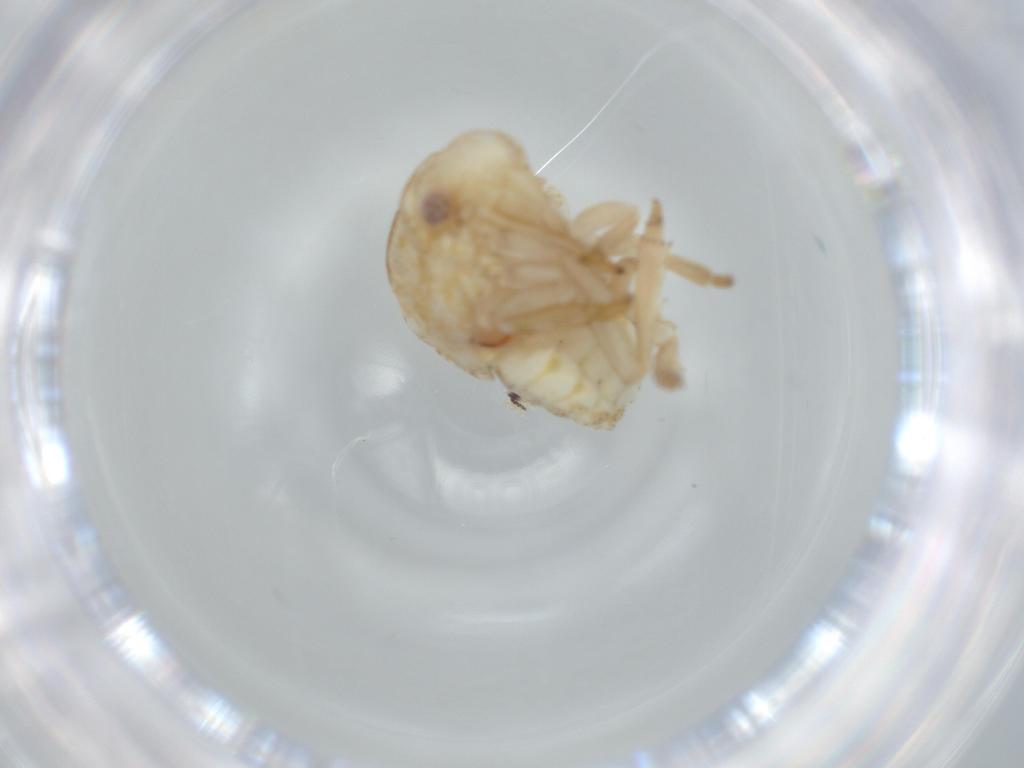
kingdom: Animalia
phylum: Arthropoda
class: Insecta
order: Hemiptera
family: Acanaloniidae
